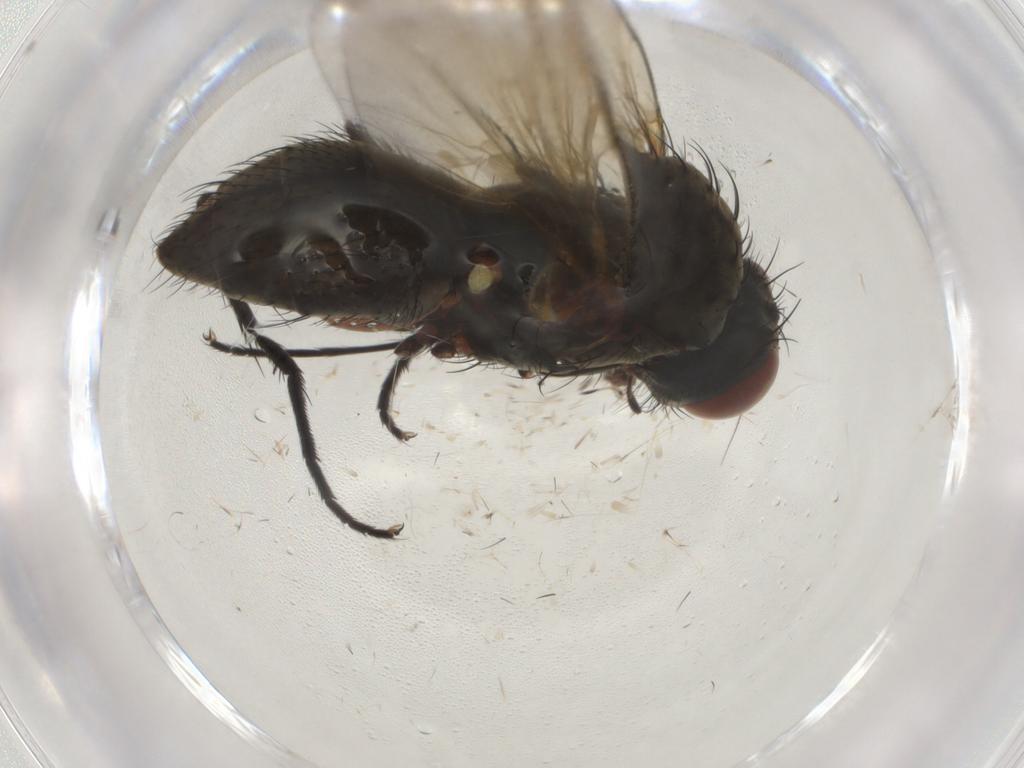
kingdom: Animalia
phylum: Arthropoda
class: Insecta
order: Diptera
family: Anthomyiidae
